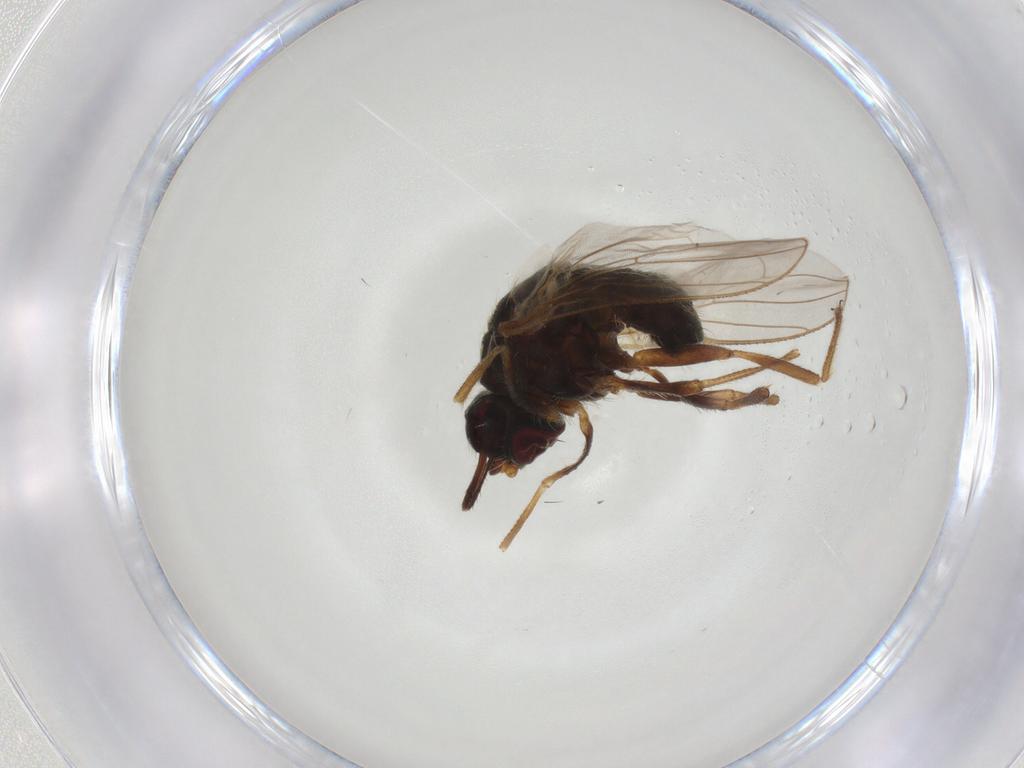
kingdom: Animalia
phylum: Arthropoda
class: Insecta
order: Diptera
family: Muscidae
